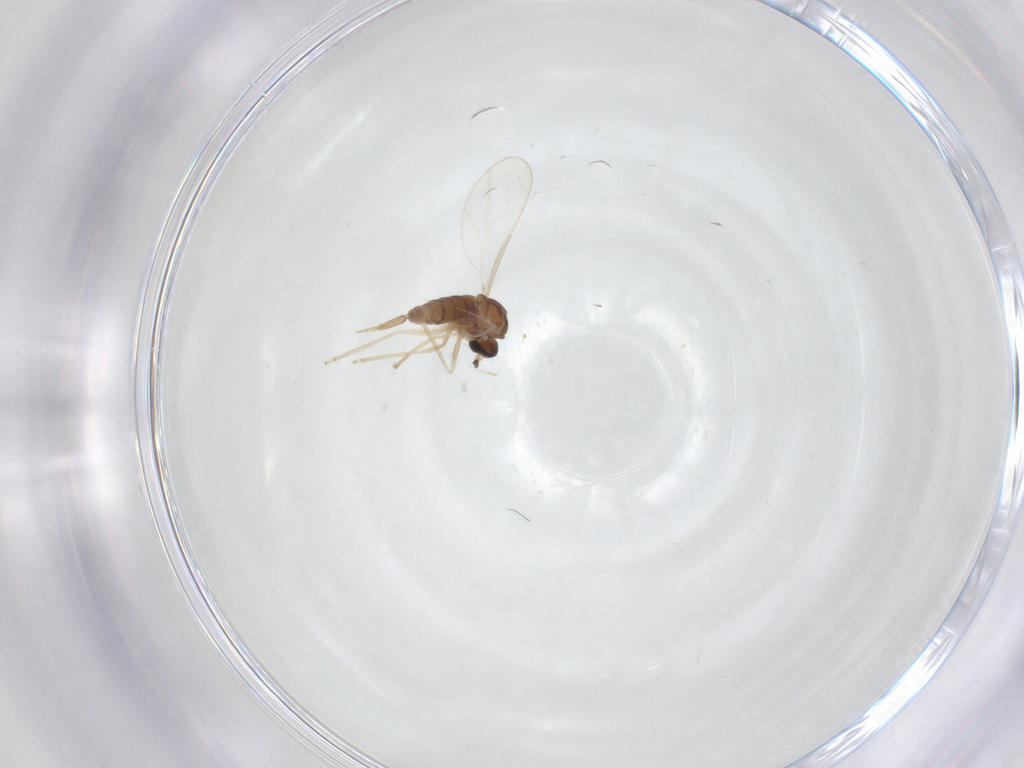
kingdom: Animalia
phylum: Arthropoda
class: Insecta
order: Diptera
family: Cecidomyiidae
